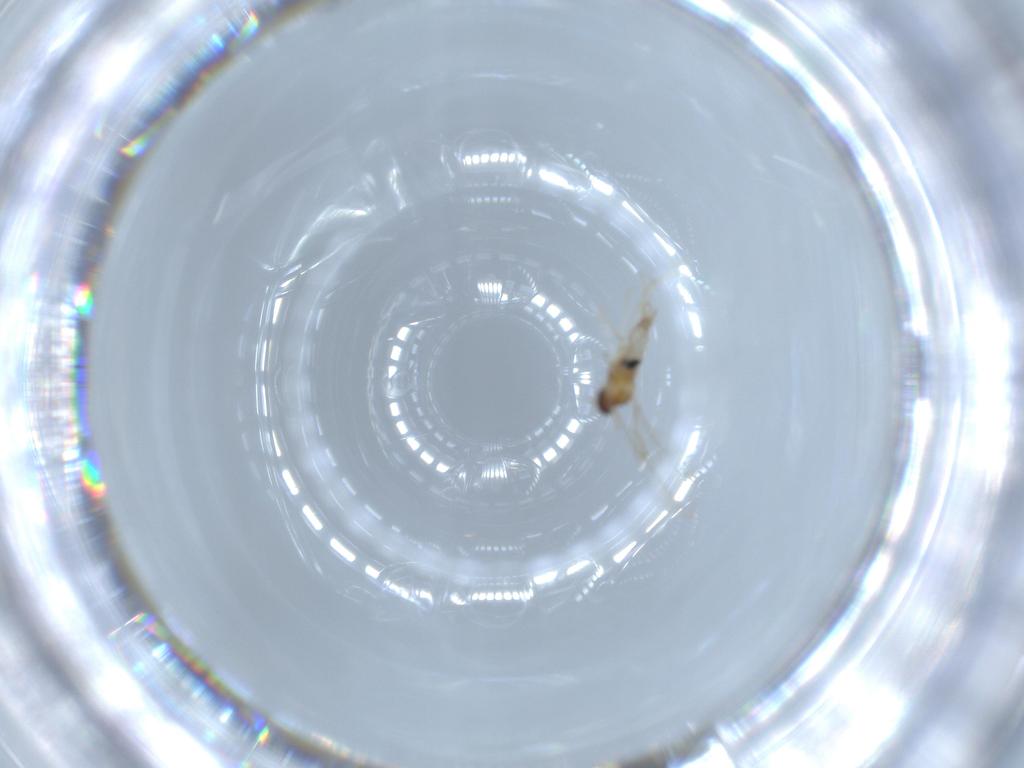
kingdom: Animalia
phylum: Arthropoda
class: Insecta
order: Diptera
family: Cecidomyiidae
